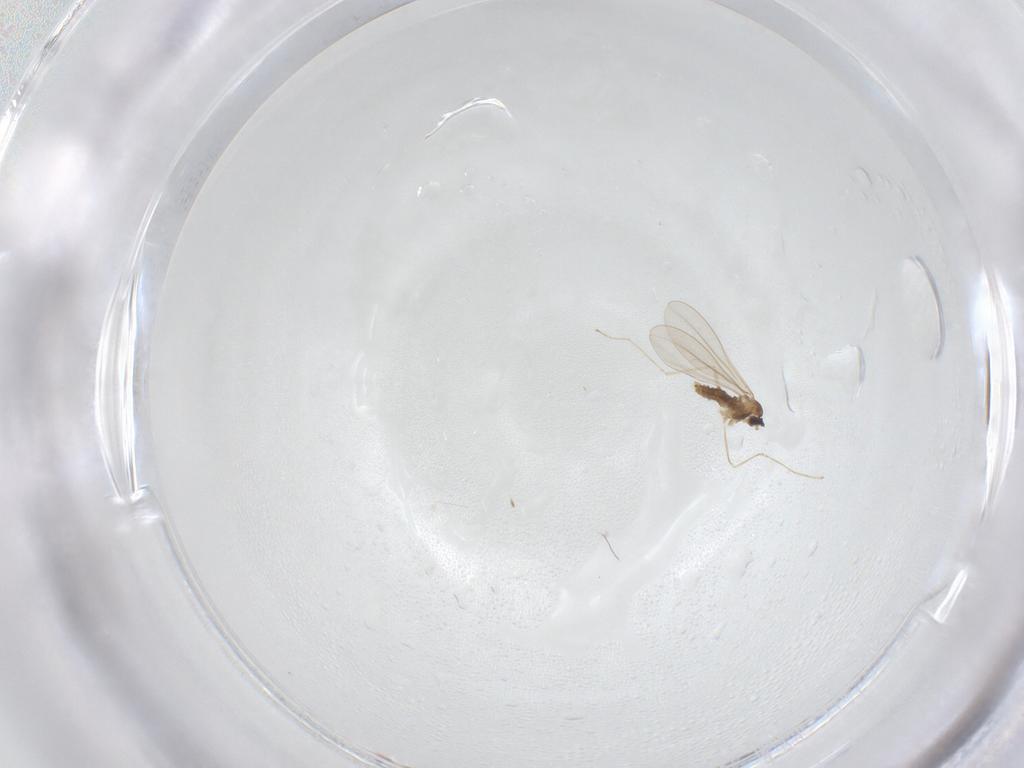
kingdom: Animalia
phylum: Arthropoda
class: Insecta
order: Diptera
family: Cecidomyiidae
